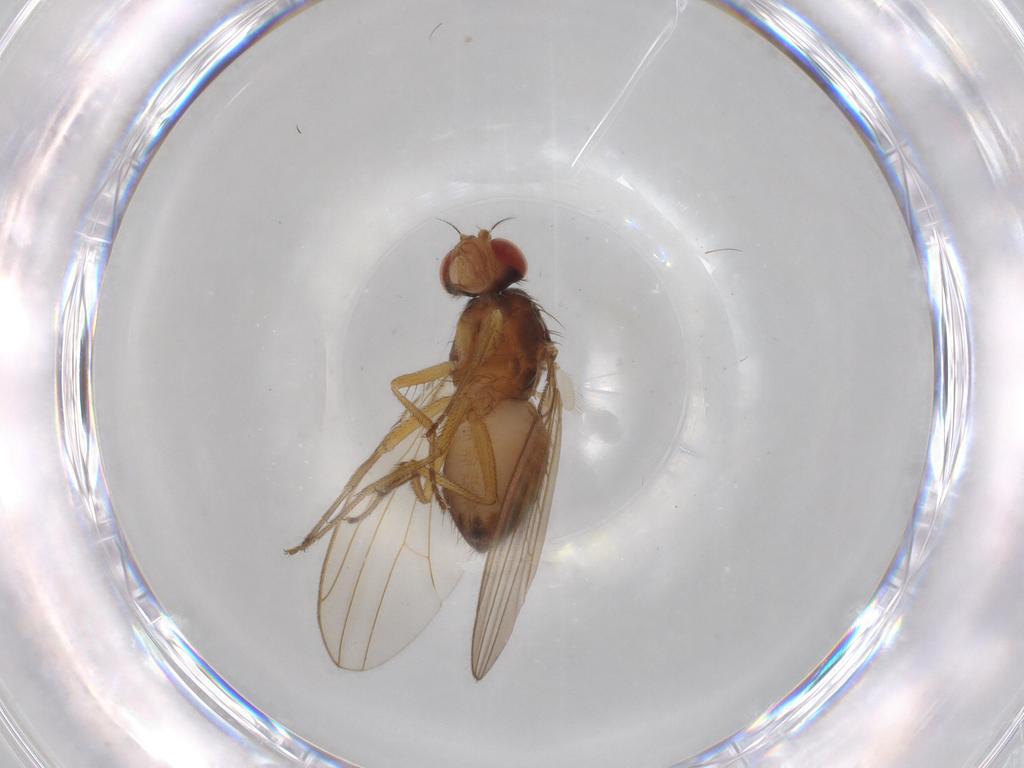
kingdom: Animalia
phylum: Arthropoda
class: Insecta
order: Diptera
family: Drosophilidae
